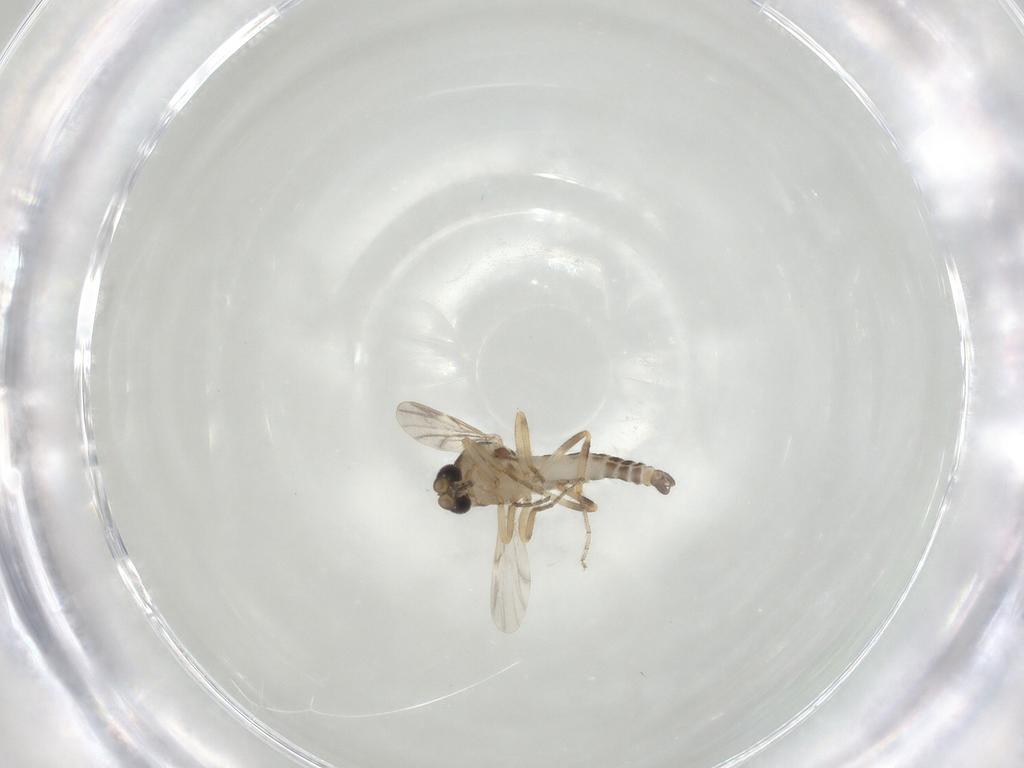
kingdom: Animalia
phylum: Arthropoda
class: Insecta
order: Diptera
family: Ceratopogonidae
